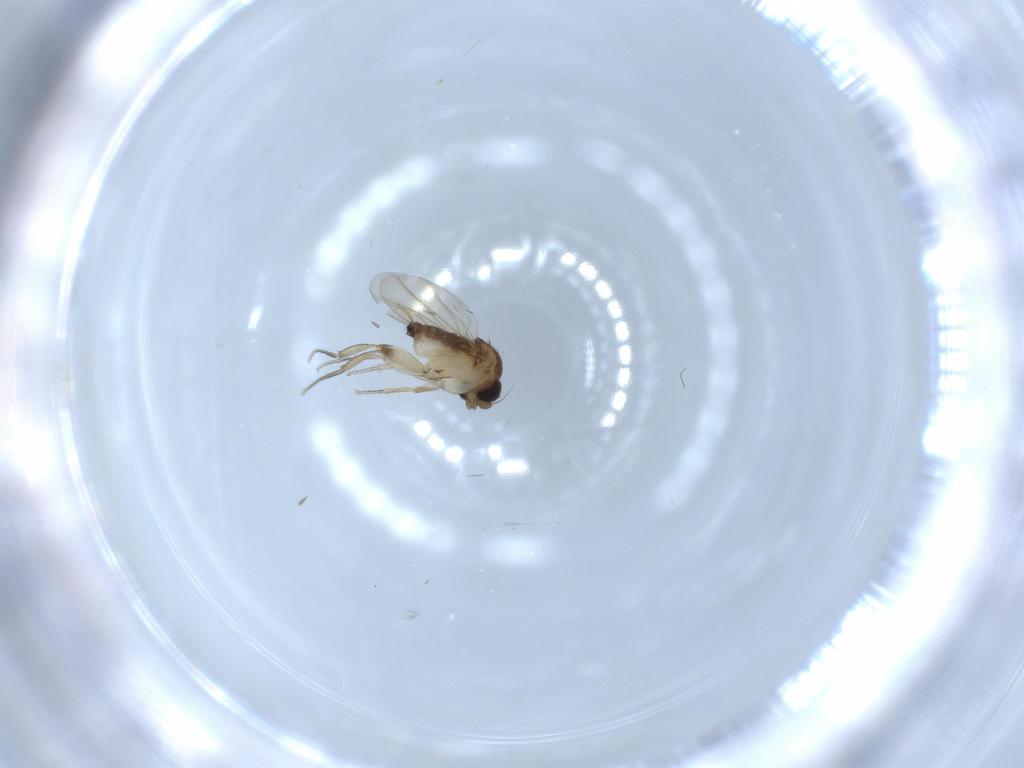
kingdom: Animalia
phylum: Arthropoda
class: Insecta
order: Diptera
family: Phoridae
